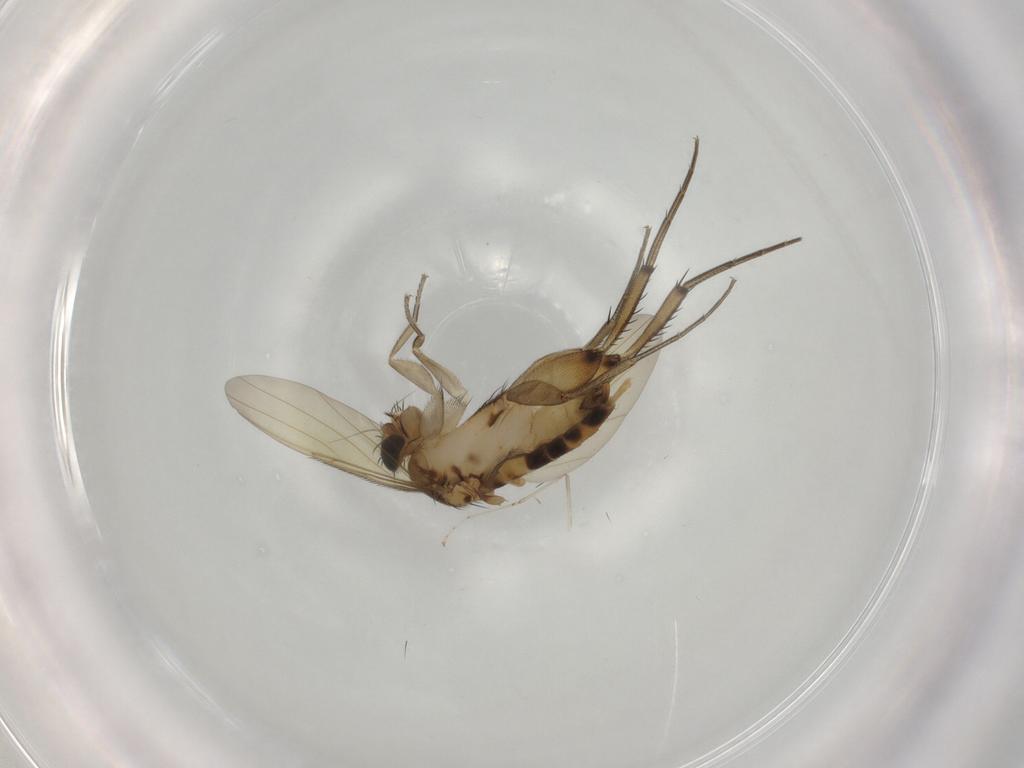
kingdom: Animalia
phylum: Arthropoda
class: Insecta
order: Diptera
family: Phoridae
